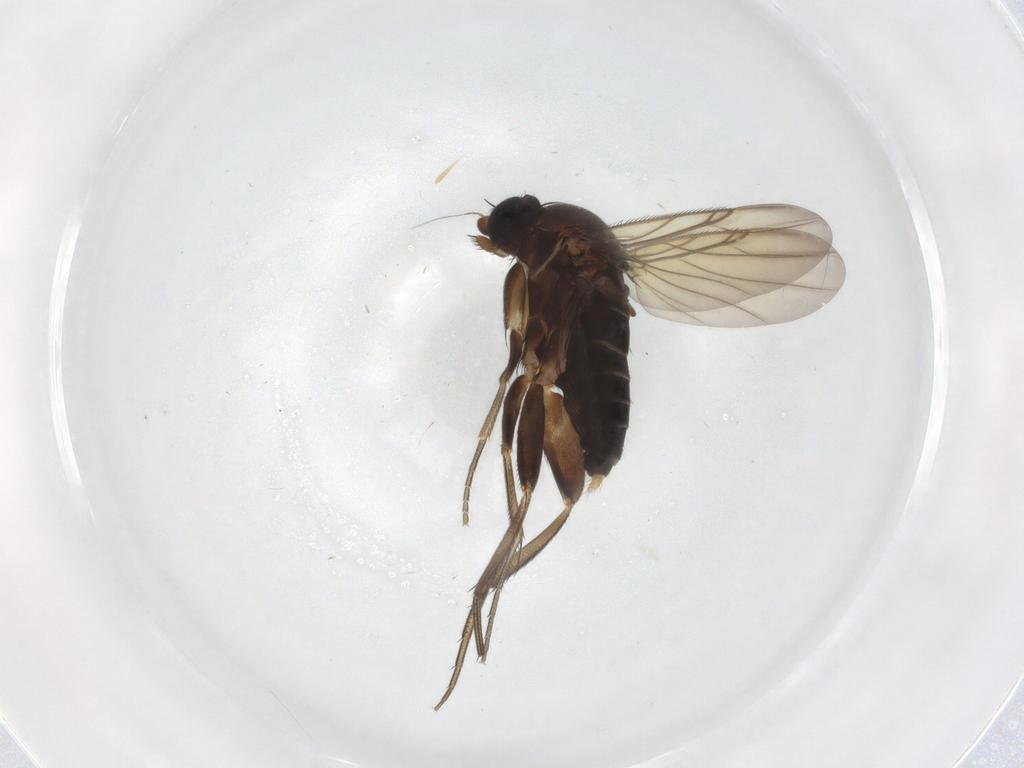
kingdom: Animalia
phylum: Arthropoda
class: Insecta
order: Diptera
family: Phoridae
